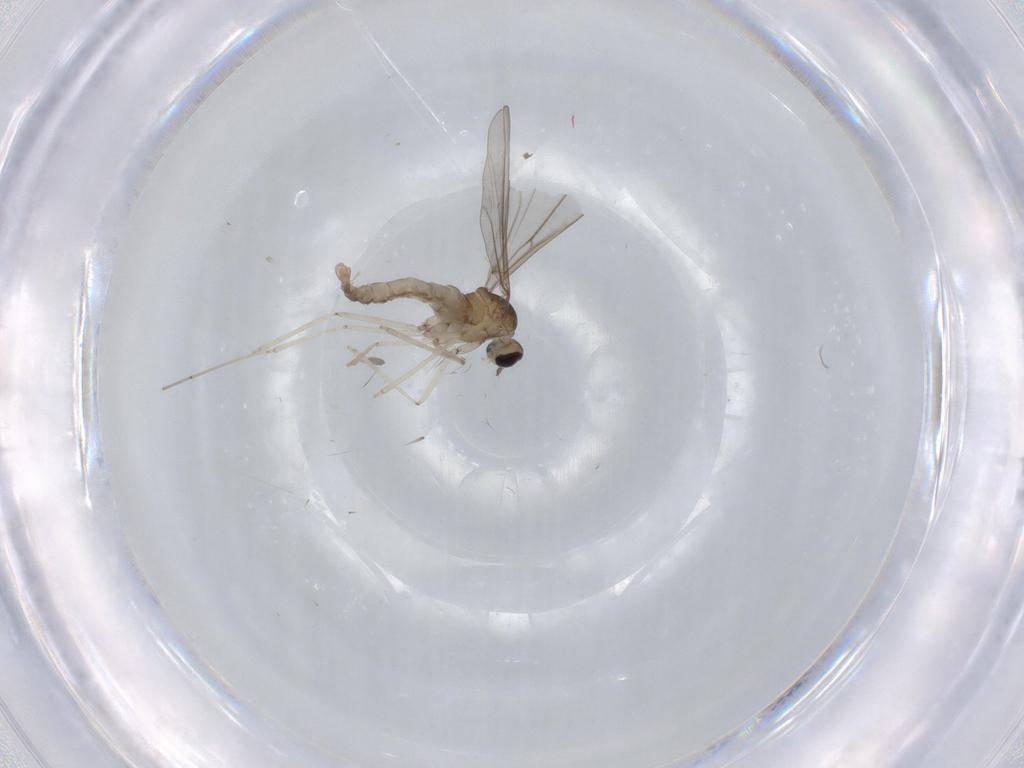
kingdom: Animalia
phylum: Arthropoda
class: Insecta
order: Diptera
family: Cecidomyiidae
